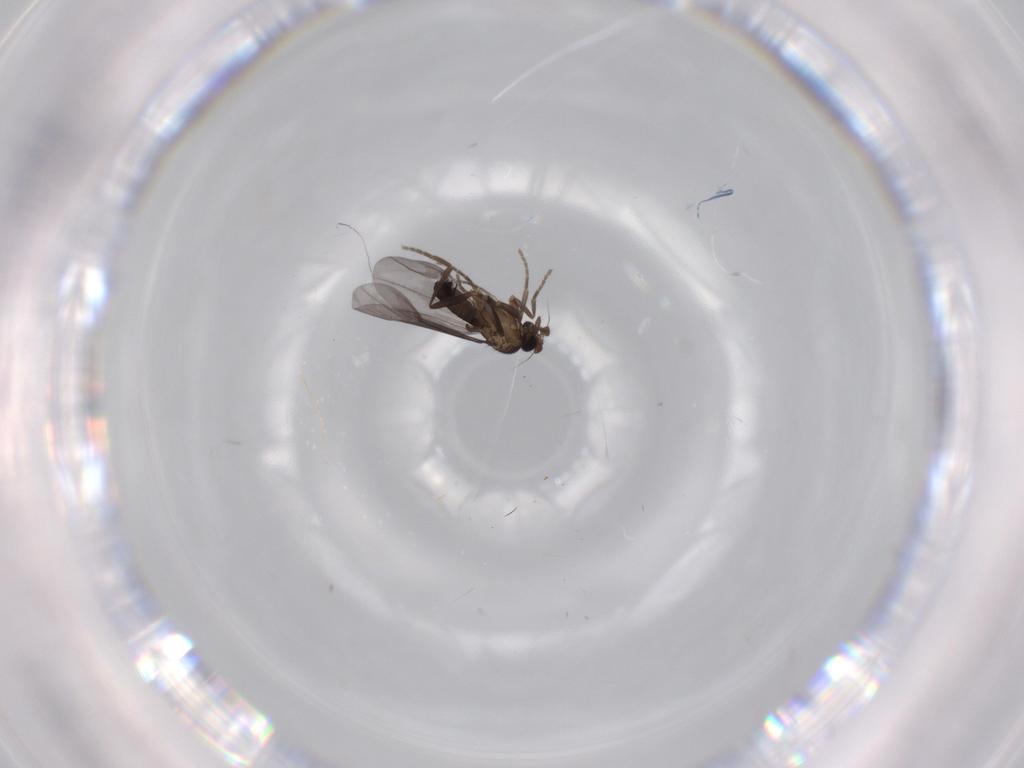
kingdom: Animalia
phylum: Arthropoda
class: Insecta
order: Diptera
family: Phoridae
